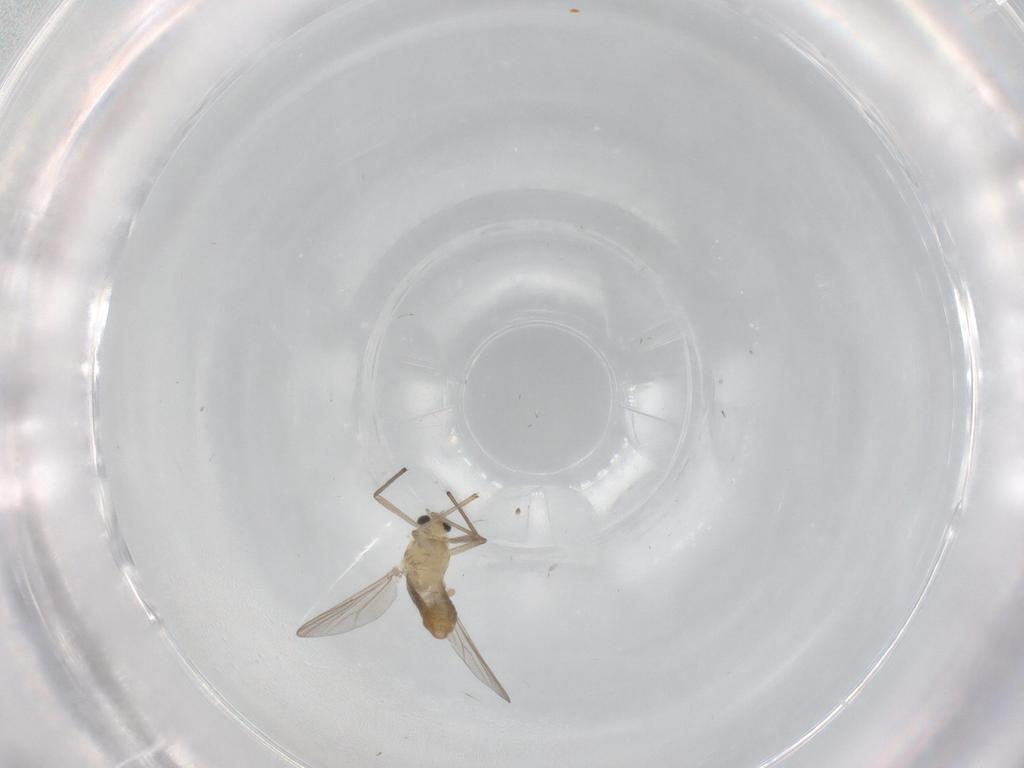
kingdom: Animalia
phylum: Arthropoda
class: Insecta
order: Diptera
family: Chironomidae
